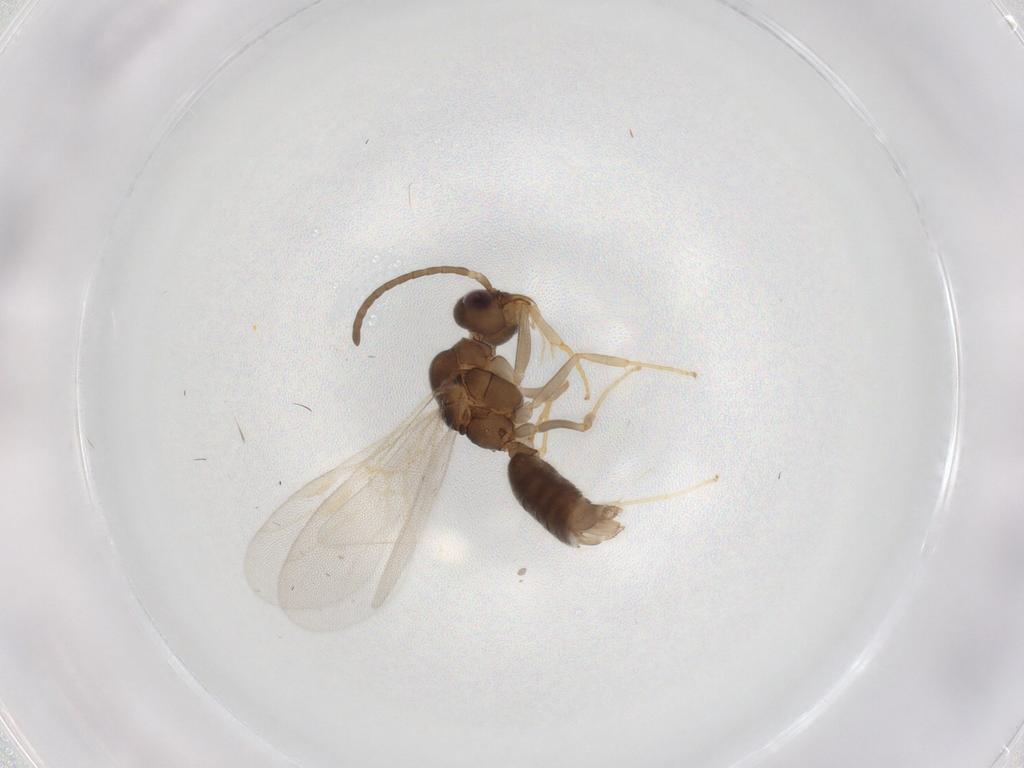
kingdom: Animalia
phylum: Arthropoda
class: Insecta
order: Hymenoptera
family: Formicidae
